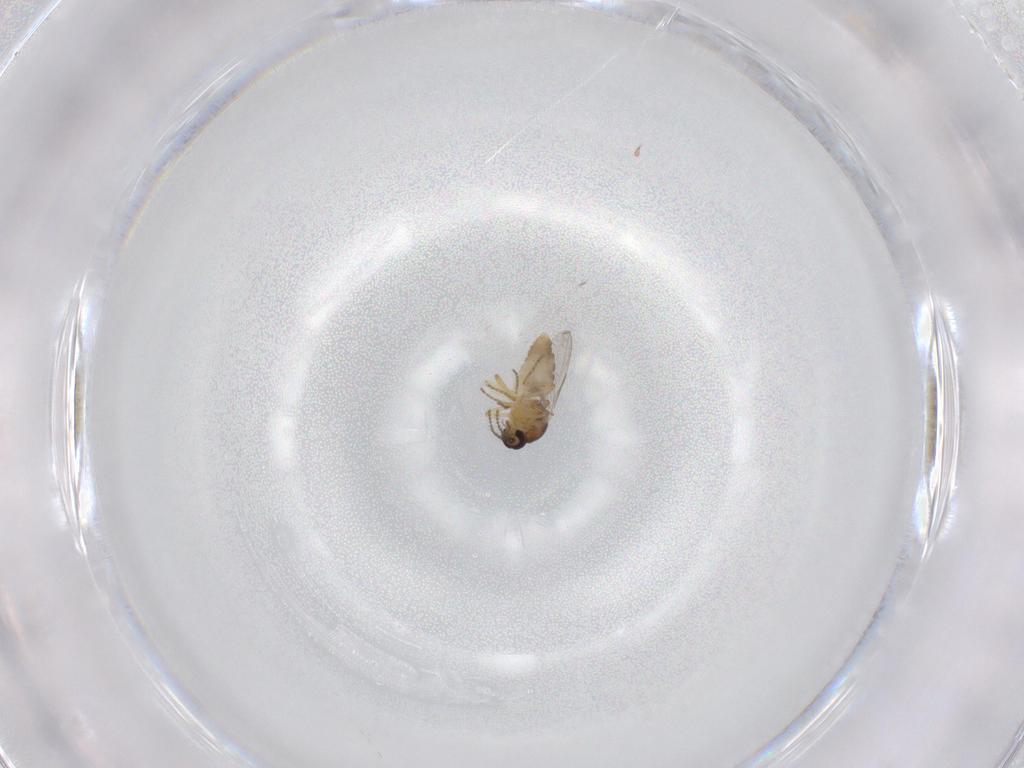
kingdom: Animalia
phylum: Arthropoda
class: Insecta
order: Diptera
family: Ceratopogonidae
